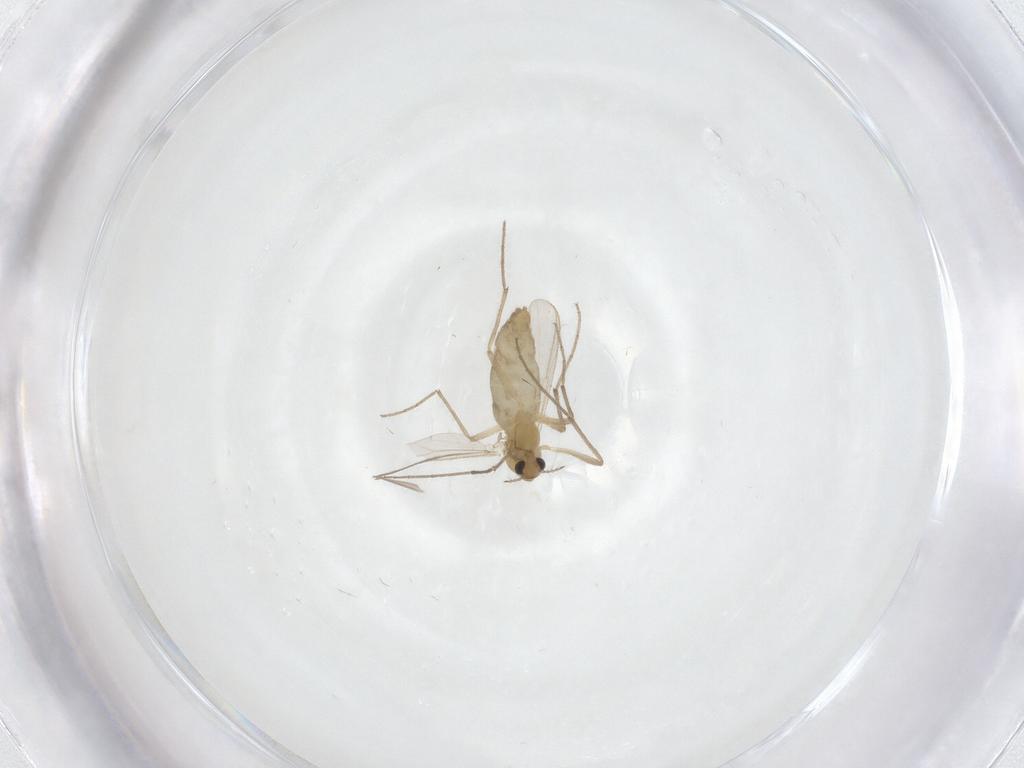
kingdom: Animalia
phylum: Arthropoda
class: Insecta
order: Diptera
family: Chironomidae
